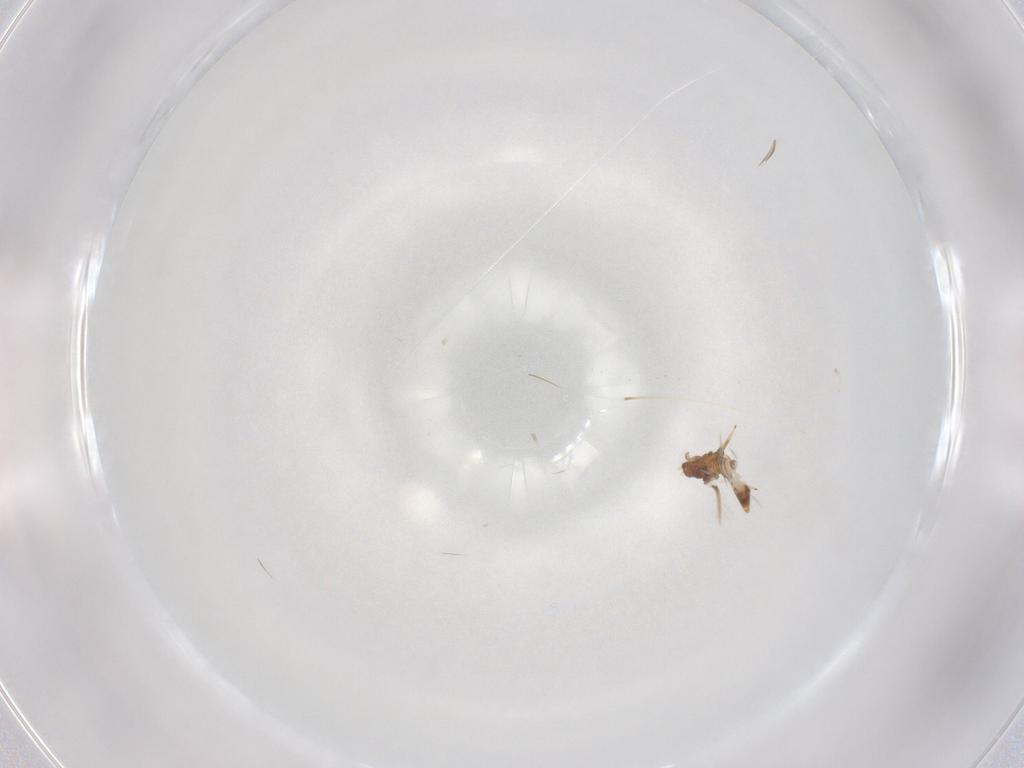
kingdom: Animalia
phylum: Arthropoda
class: Insecta
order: Thysanoptera
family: Thripidae
